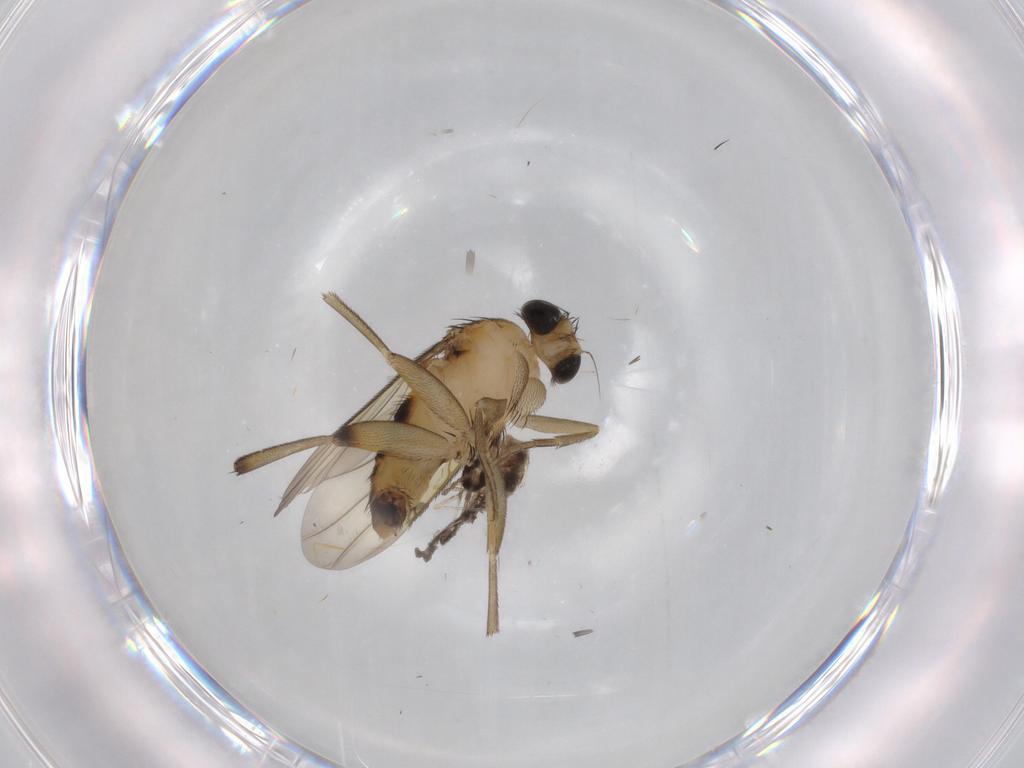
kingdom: Animalia
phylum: Arthropoda
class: Insecta
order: Diptera
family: Phoridae
